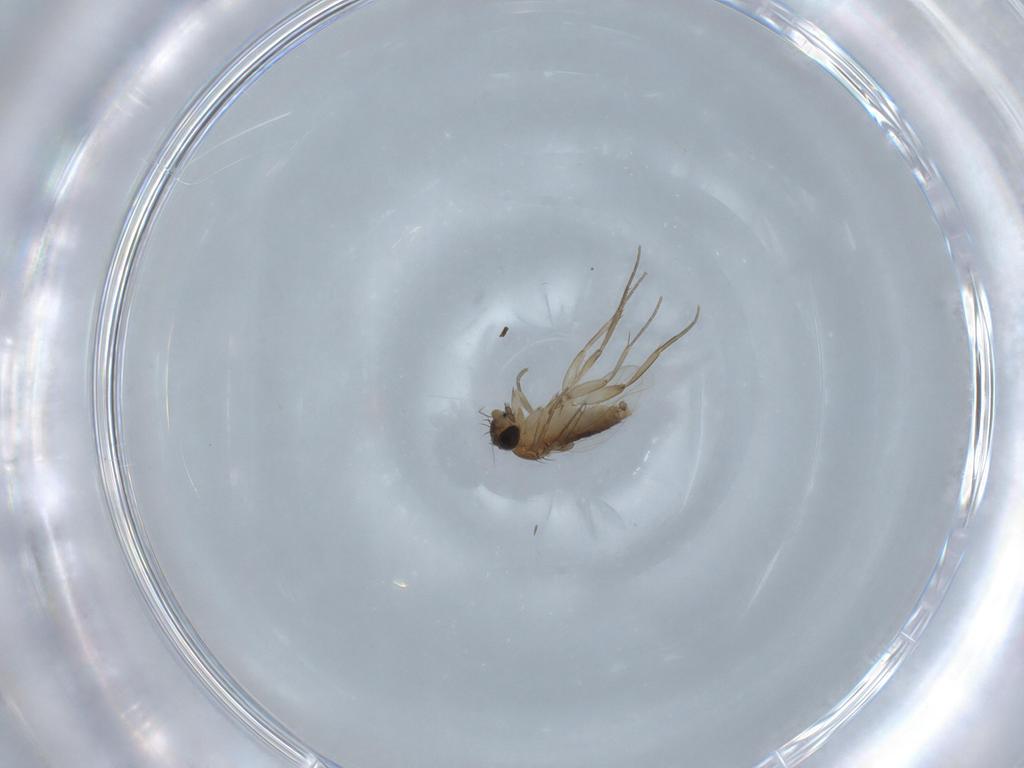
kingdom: Animalia
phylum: Arthropoda
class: Insecta
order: Diptera
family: Phoridae
